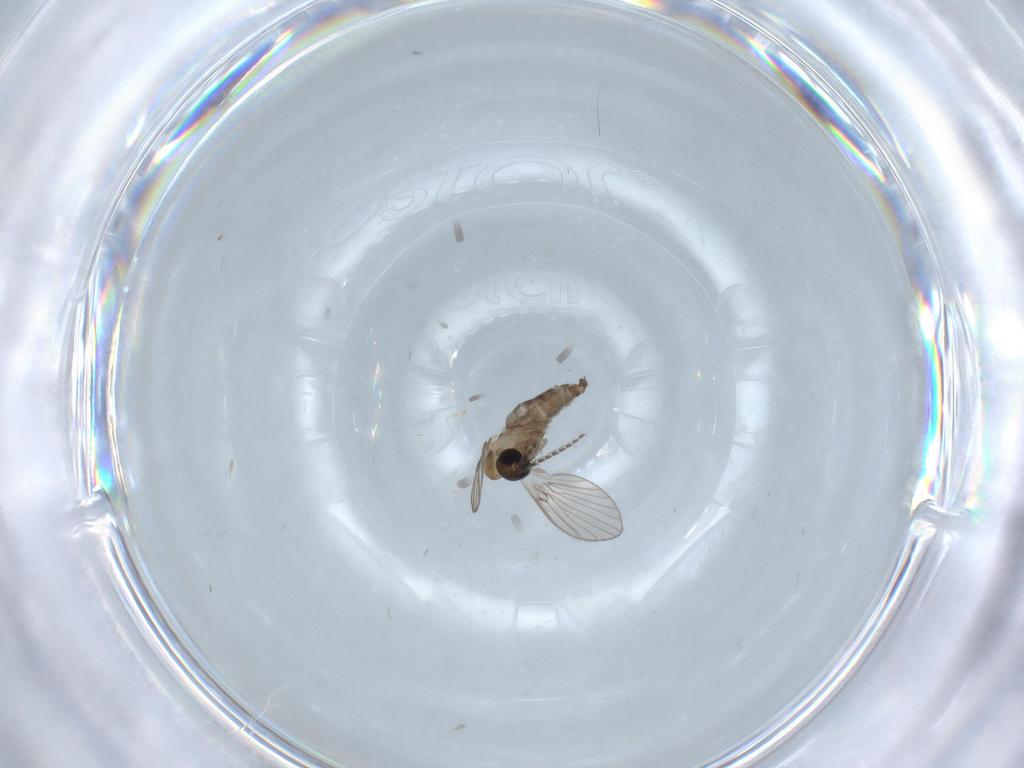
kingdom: Animalia
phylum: Arthropoda
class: Insecta
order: Diptera
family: Psychodidae
